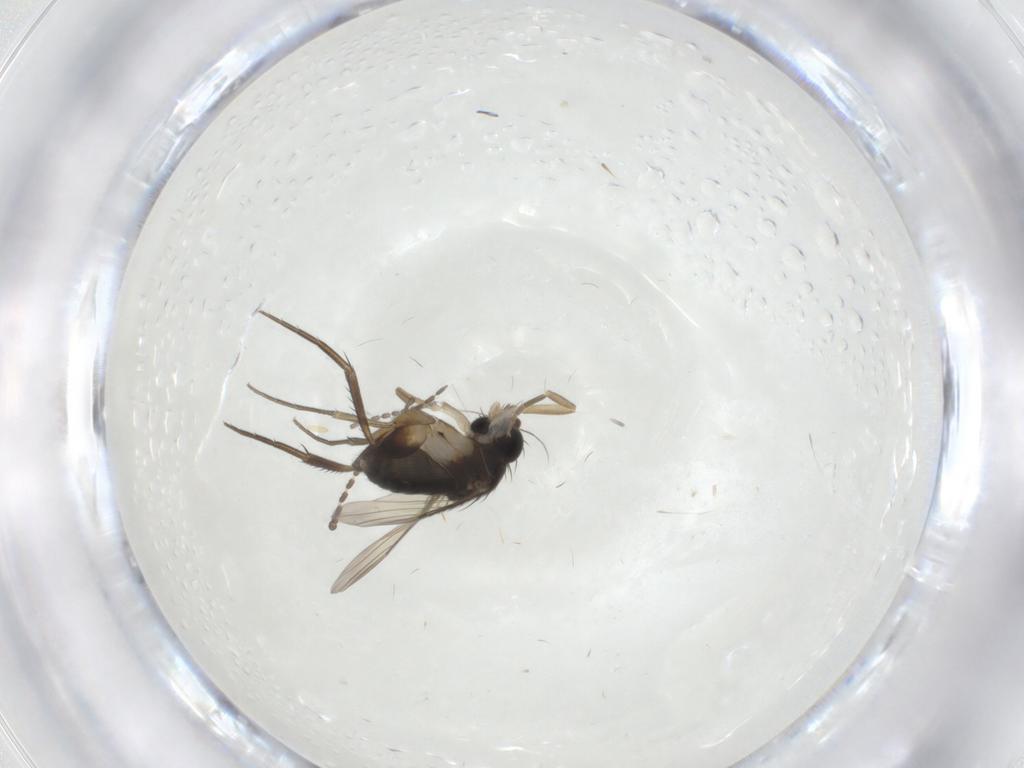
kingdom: Animalia
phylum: Arthropoda
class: Insecta
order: Diptera
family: Phoridae
